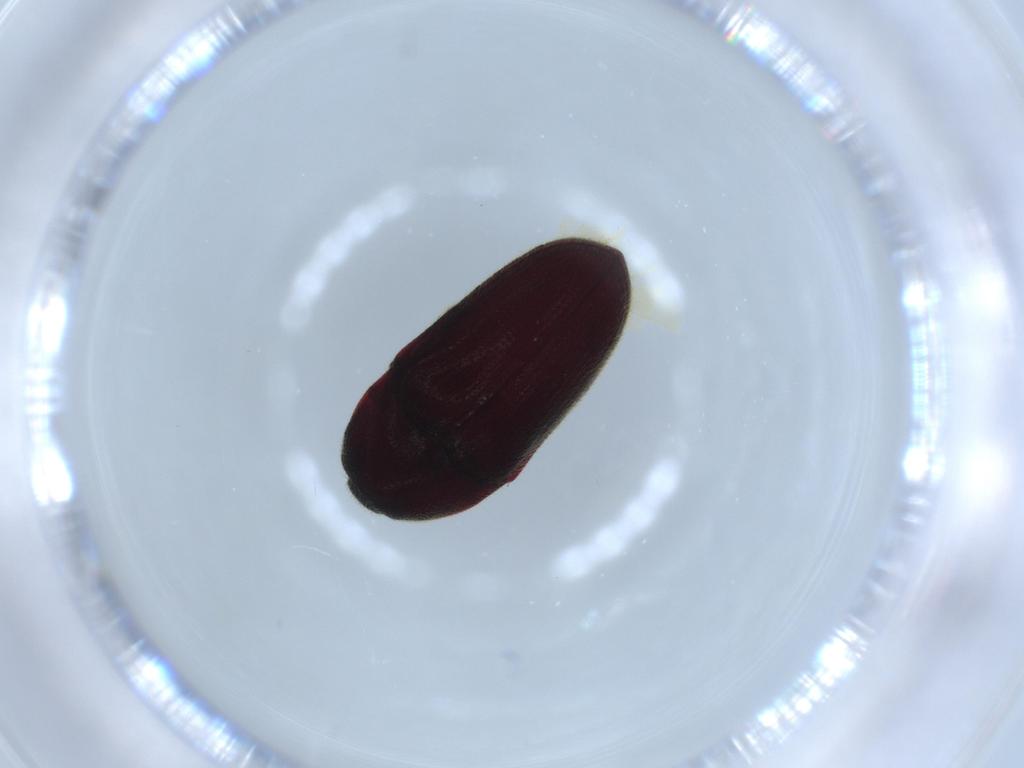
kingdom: Animalia
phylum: Arthropoda
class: Insecta
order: Coleoptera
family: Throscidae
